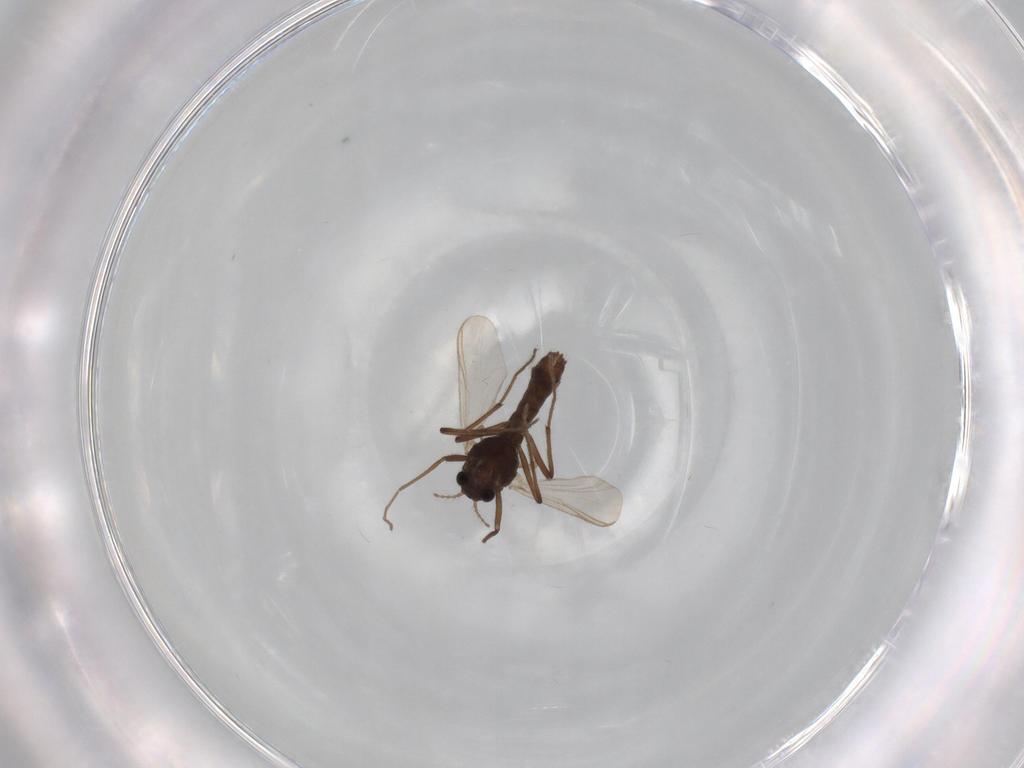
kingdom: Animalia
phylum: Arthropoda
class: Insecta
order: Diptera
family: Chironomidae
